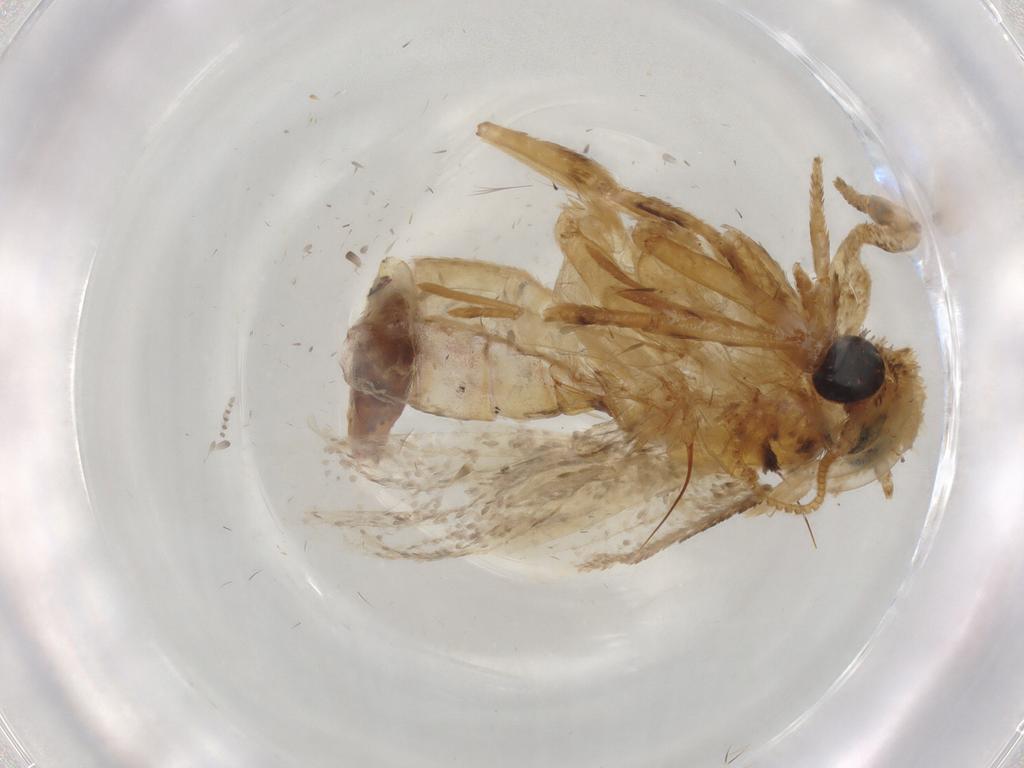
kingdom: Animalia
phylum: Arthropoda
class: Insecta
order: Lepidoptera
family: Tineidae
